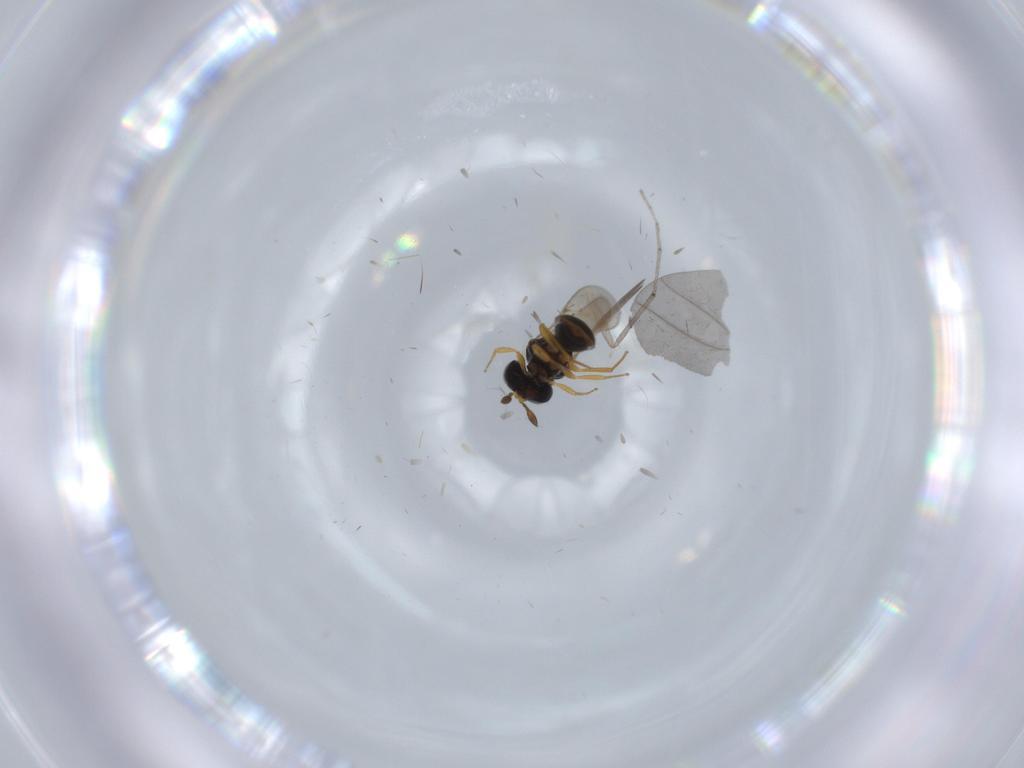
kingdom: Animalia
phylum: Arthropoda
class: Insecta
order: Hymenoptera
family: Scelionidae
